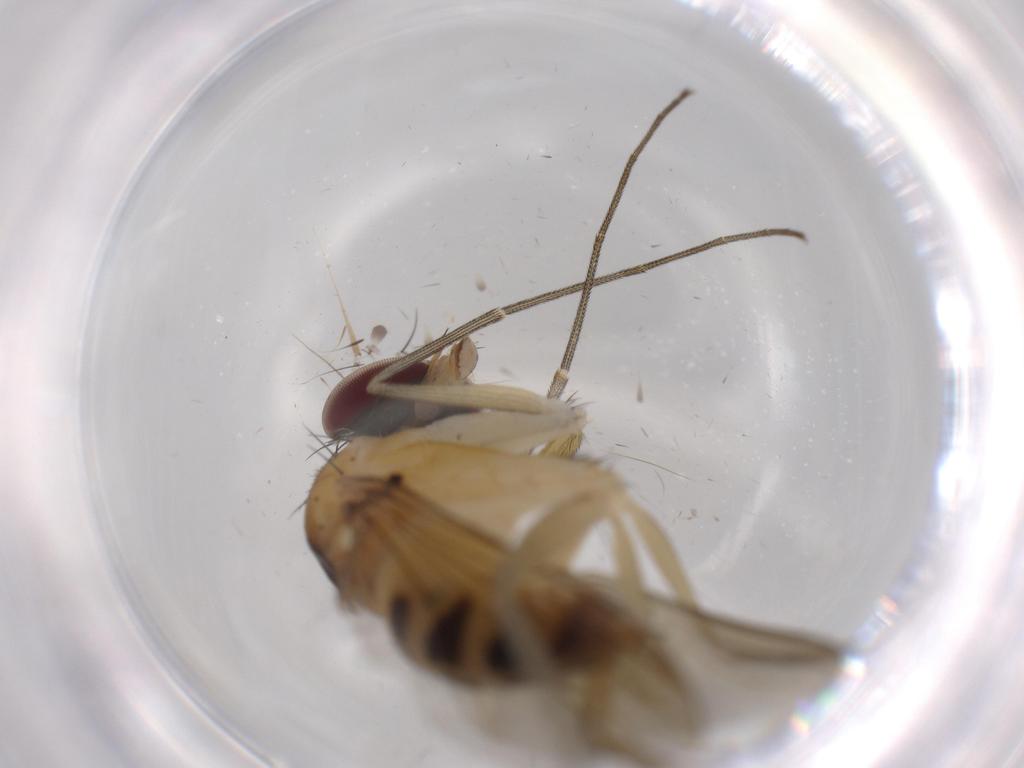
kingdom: Animalia
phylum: Arthropoda
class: Insecta
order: Diptera
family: Dolichopodidae
